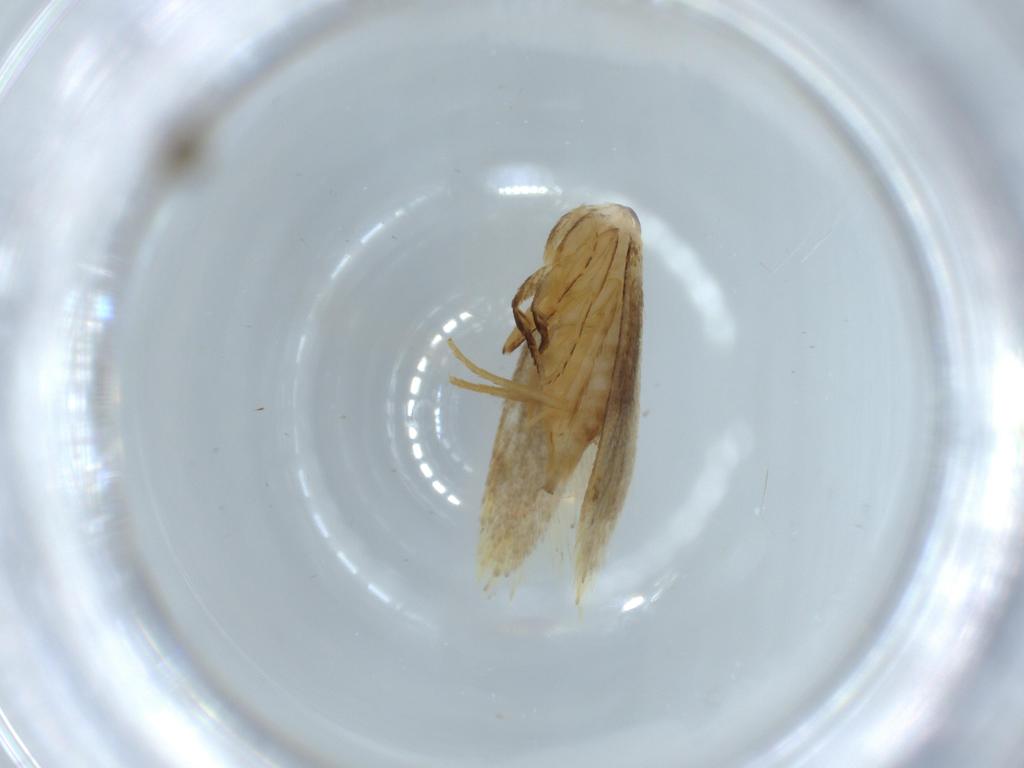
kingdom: Animalia
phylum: Arthropoda
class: Insecta
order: Lepidoptera
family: Tineidae
